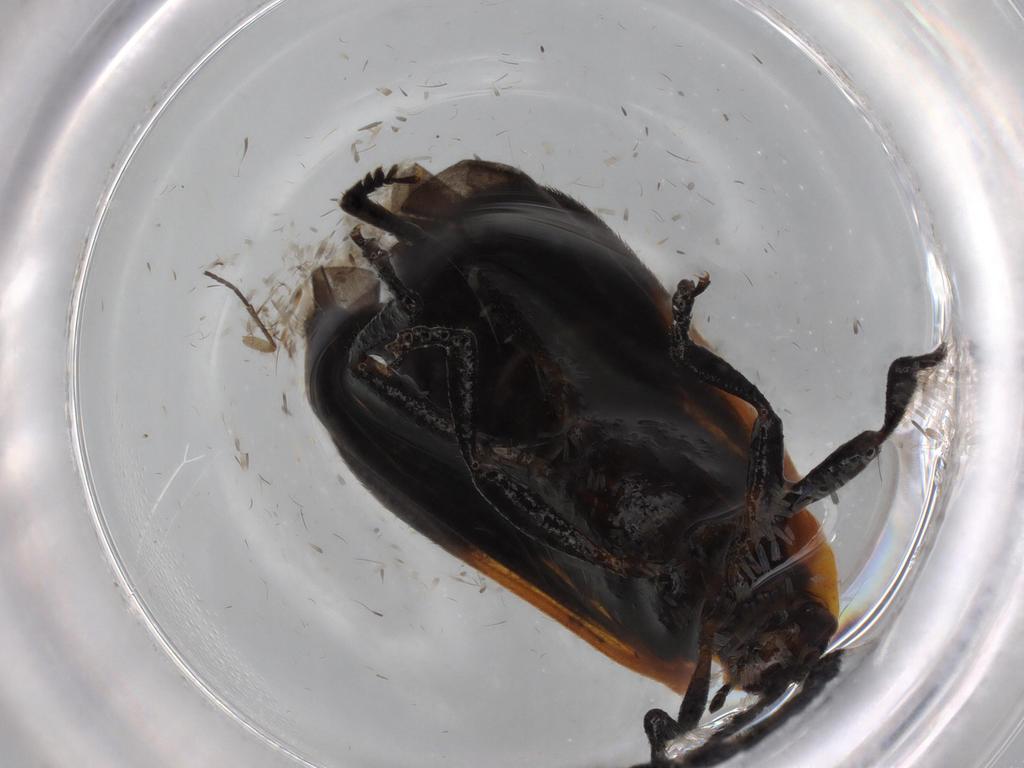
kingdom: Animalia
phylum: Arthropoda
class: Insecta
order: Coleoptera
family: Lycidae
